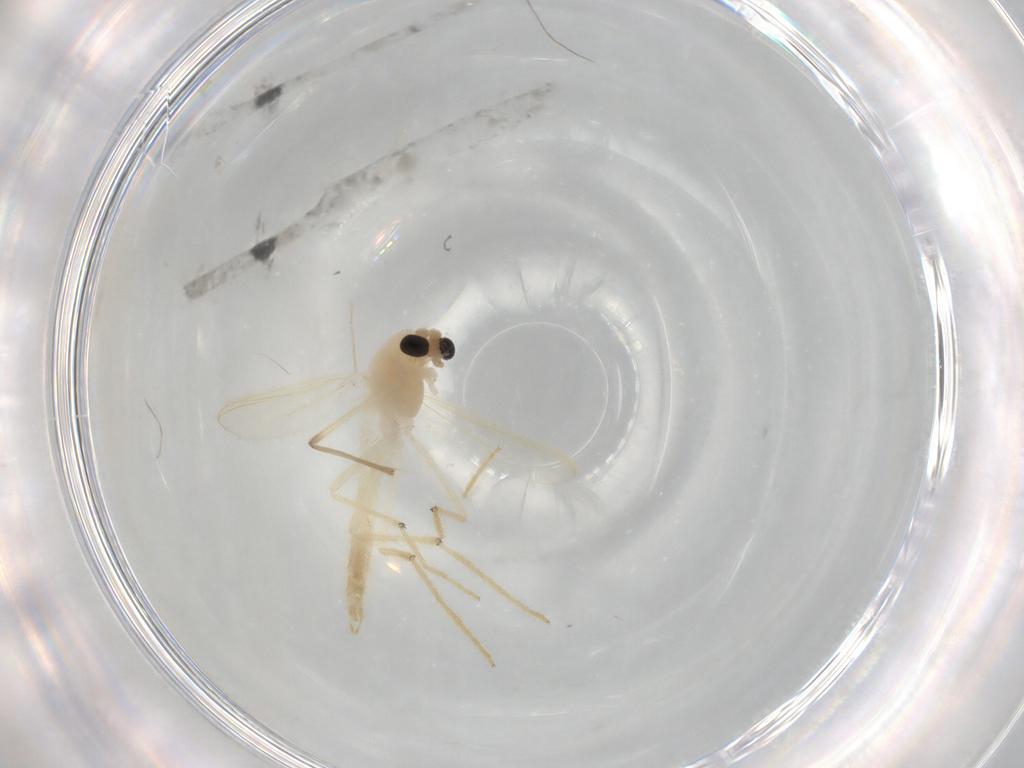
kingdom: Animalia
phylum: Arthropoda
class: Insecta
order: Diptera
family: Chironomidae
